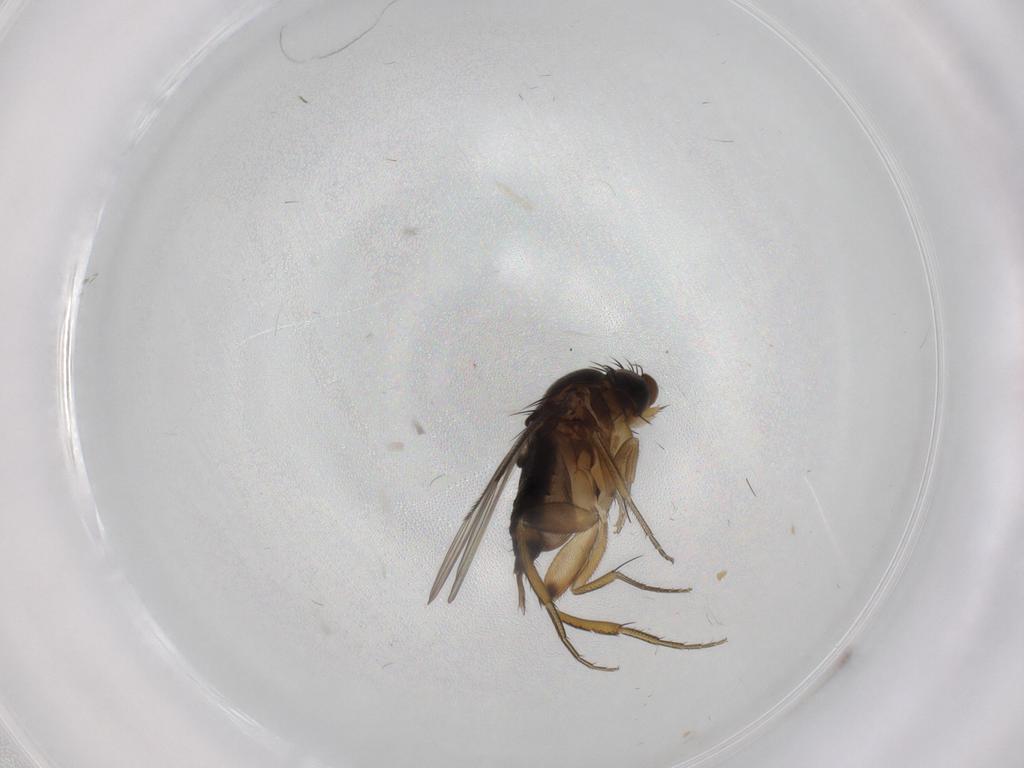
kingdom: Animalia
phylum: Arthropoda
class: Insecta
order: Diptera
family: Phoridae
